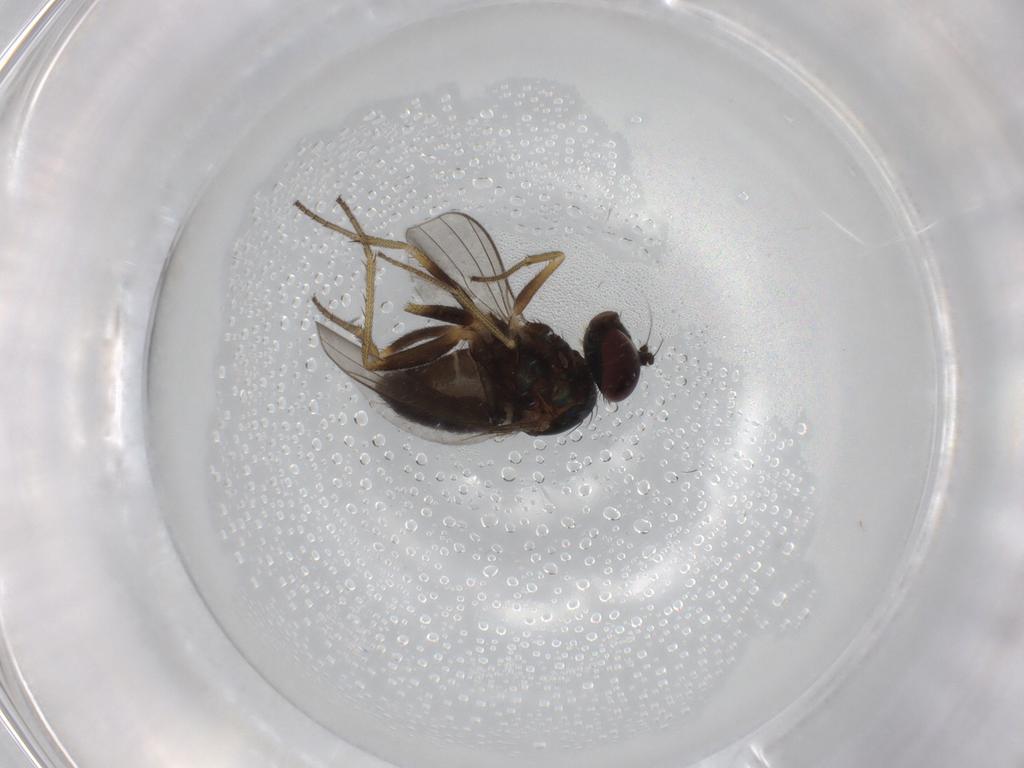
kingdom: Animalia
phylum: Arthropoda
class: Insecta
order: Diptera
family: Dolichopodidae
